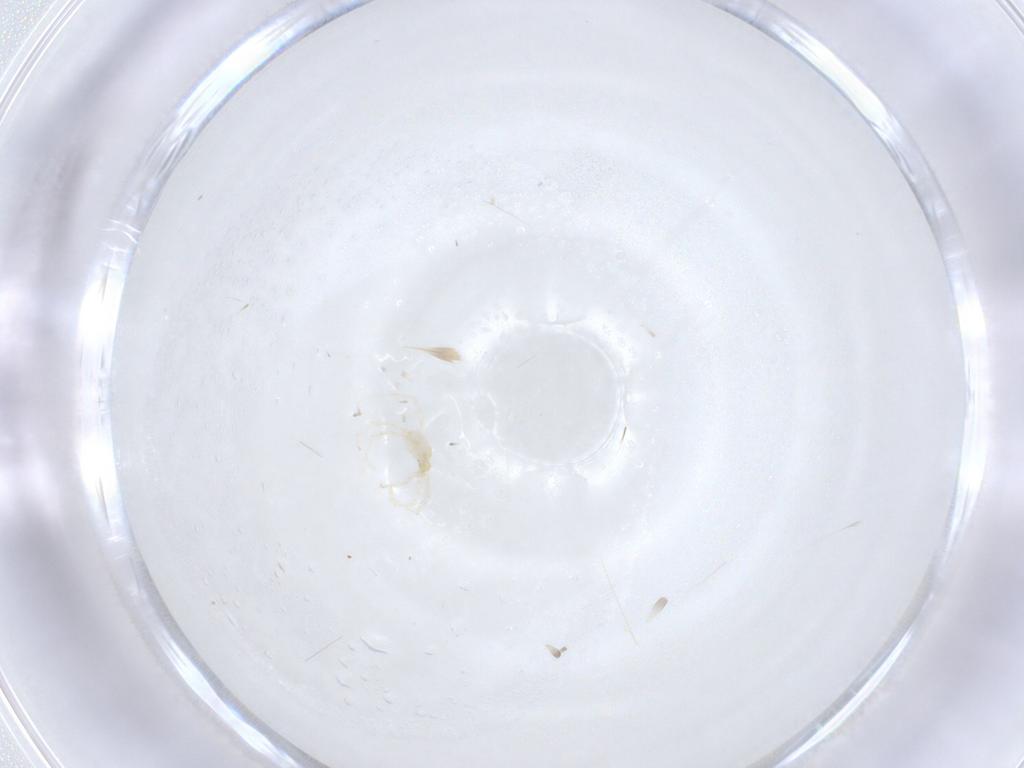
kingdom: Animalia
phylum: Arthropoda
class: Arachnida
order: Trombidiformes
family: Erythraeidae
